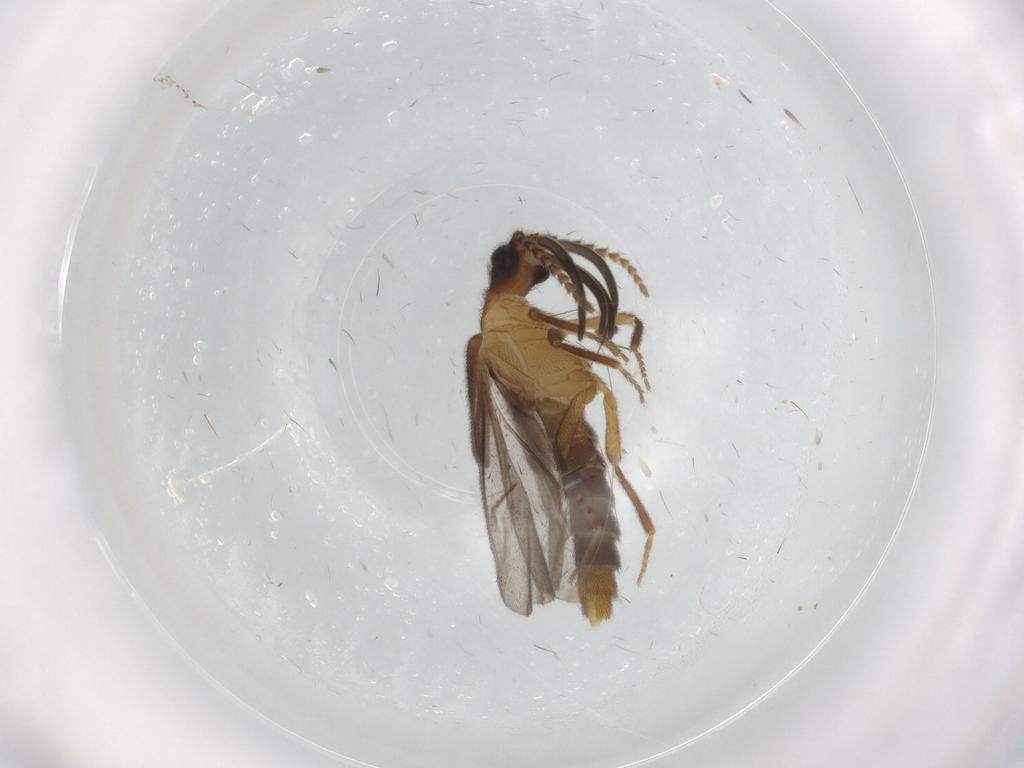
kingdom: Animalia
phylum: Arthropoda
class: Insecta
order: Coleoptera
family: Omethidae
